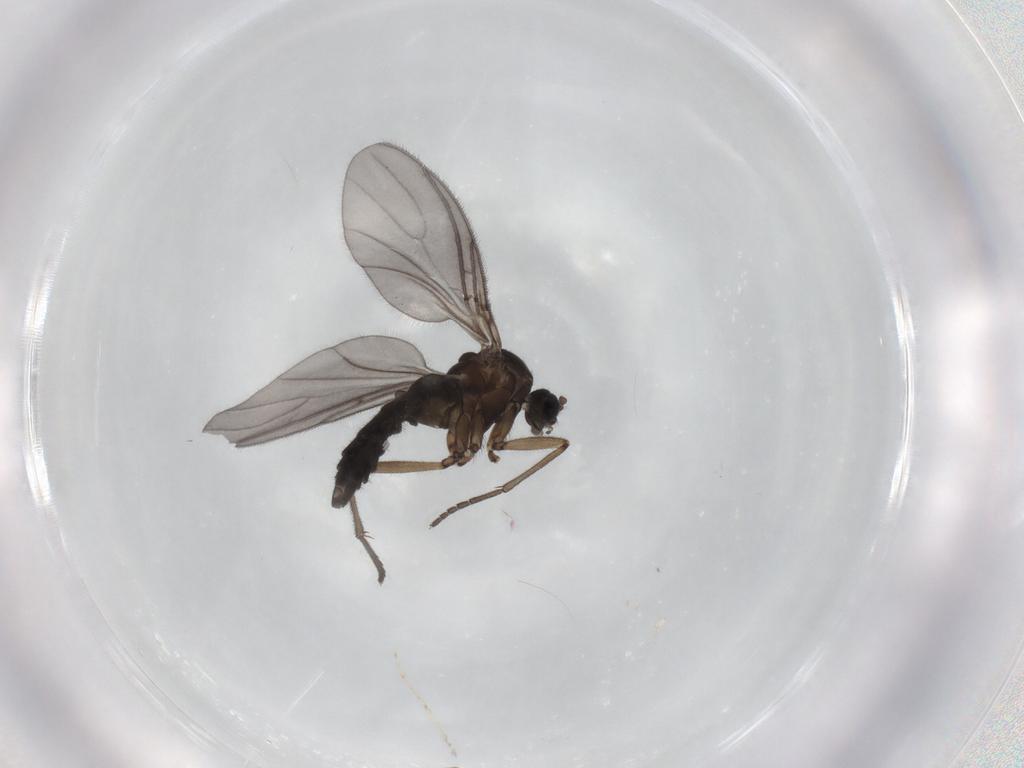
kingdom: Animalia
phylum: Arthropoda
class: Insecta
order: Diptera
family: Sciaridae
